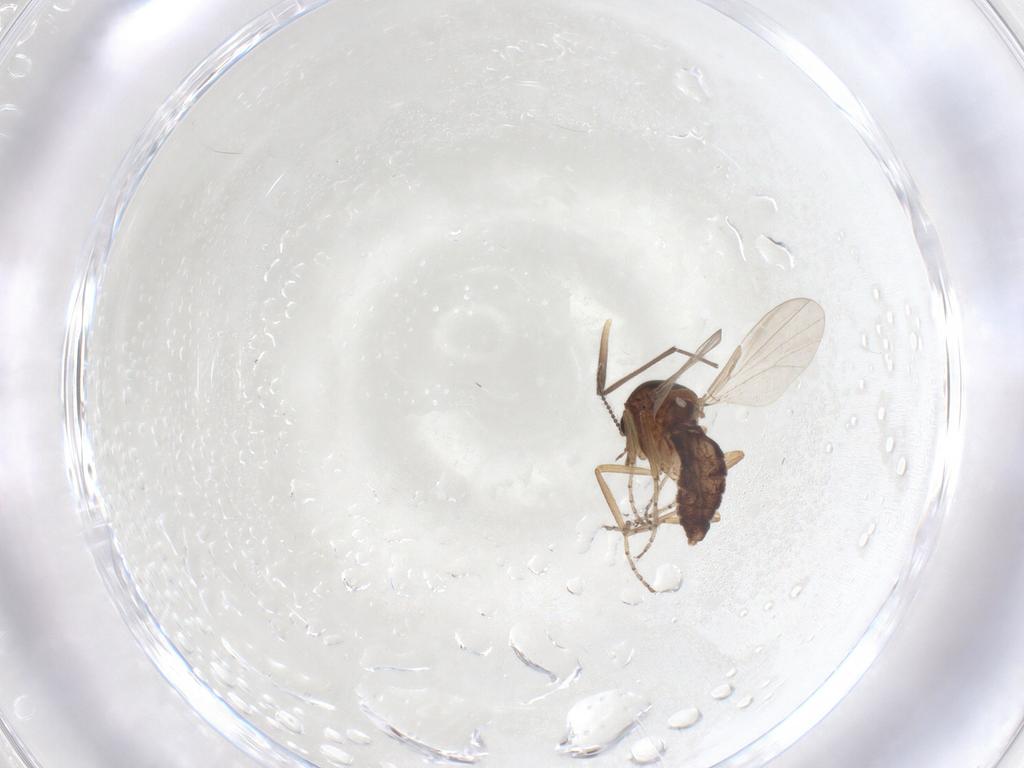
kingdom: Animalia
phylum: Arthropoda
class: Insecta
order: Diptera
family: Ceratopogonidae
